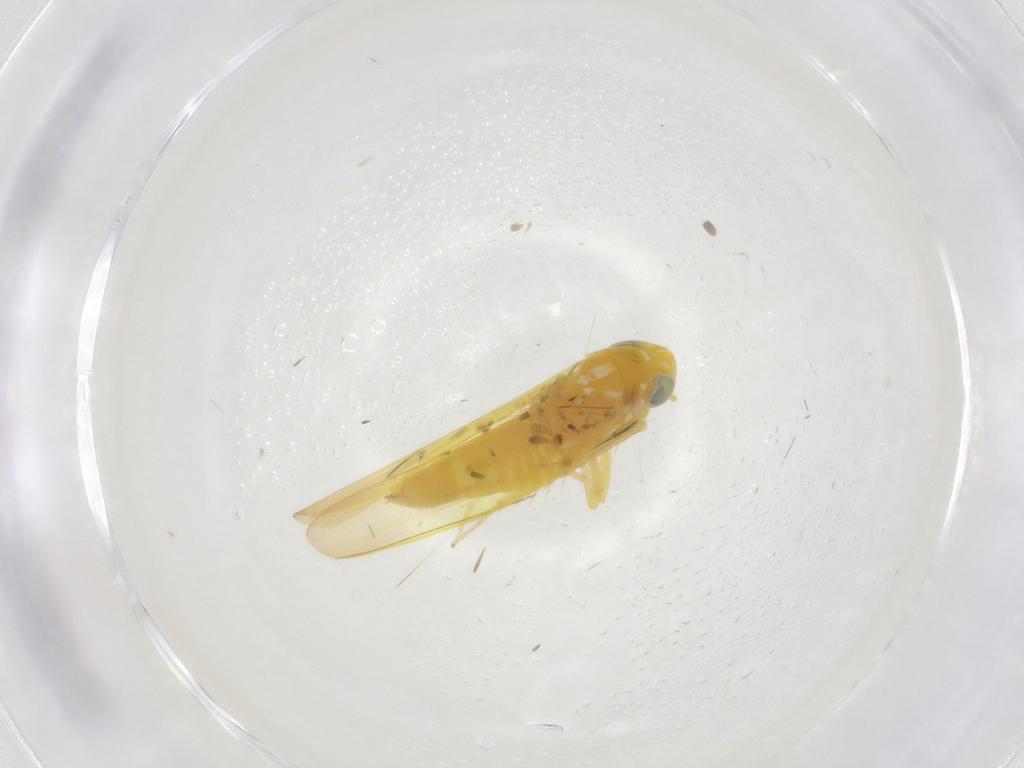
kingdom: Animalia
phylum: Arthropoda
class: Insecta
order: Hemiptera
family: Cicadellidae
